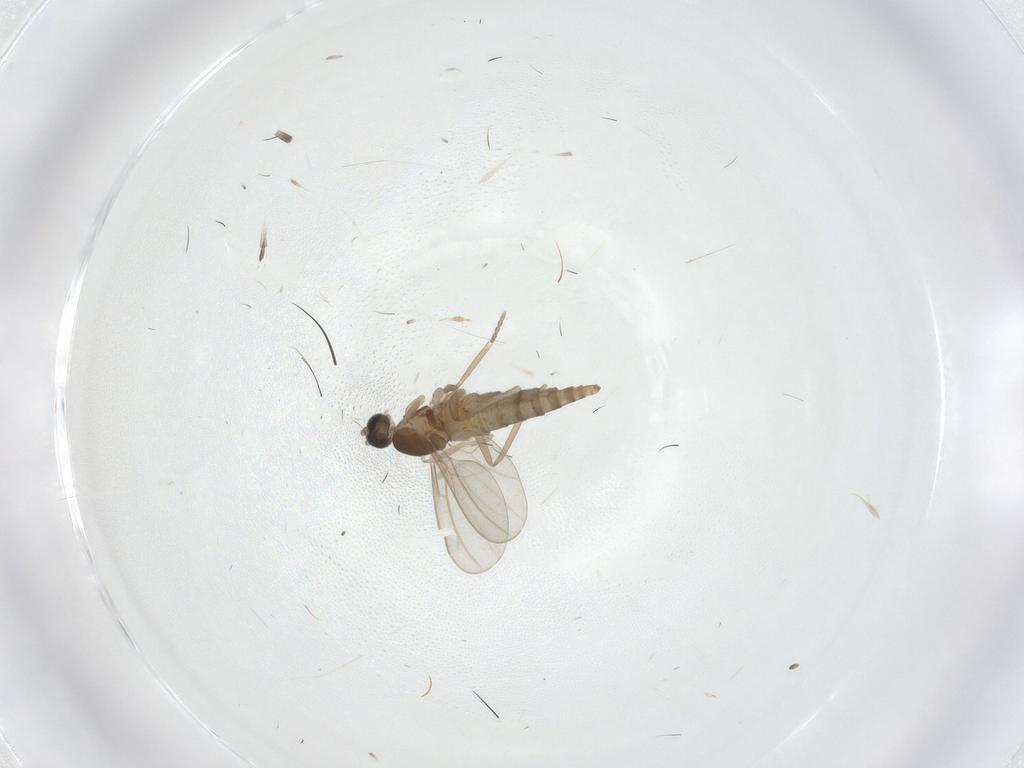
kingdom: Animalia
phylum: Arthropoda
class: Insecta
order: Diptera
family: Cecidomyiidae
